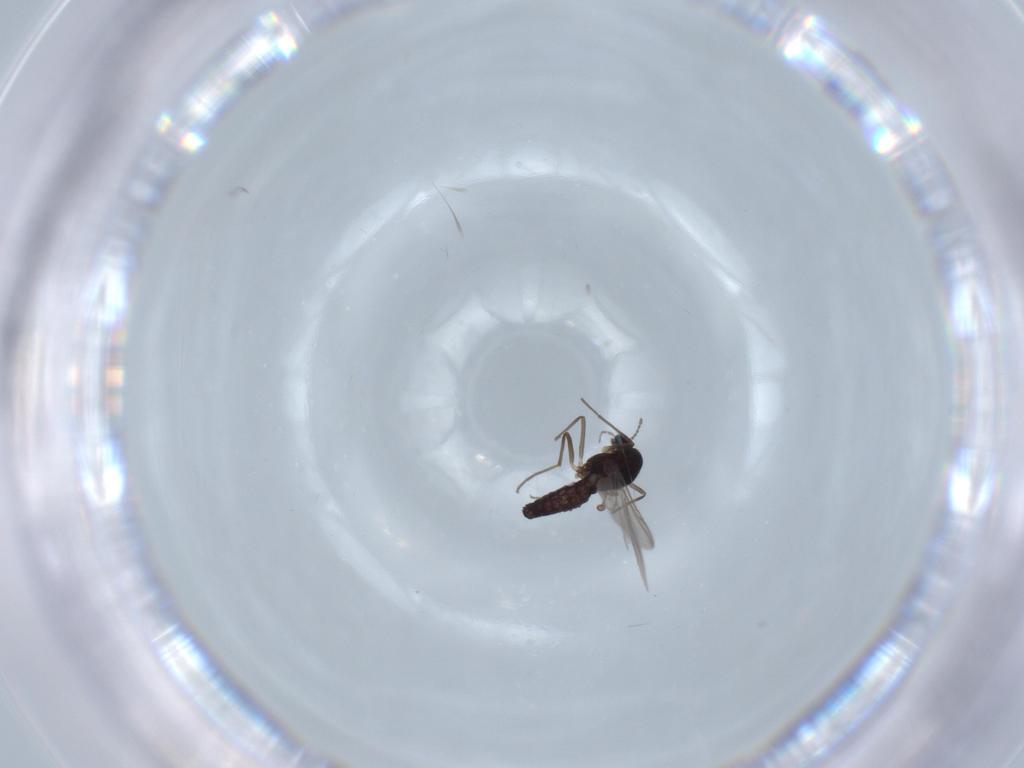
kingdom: Animalia
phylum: Arthropoda
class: Insecta
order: Diptera
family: Chironomidae
